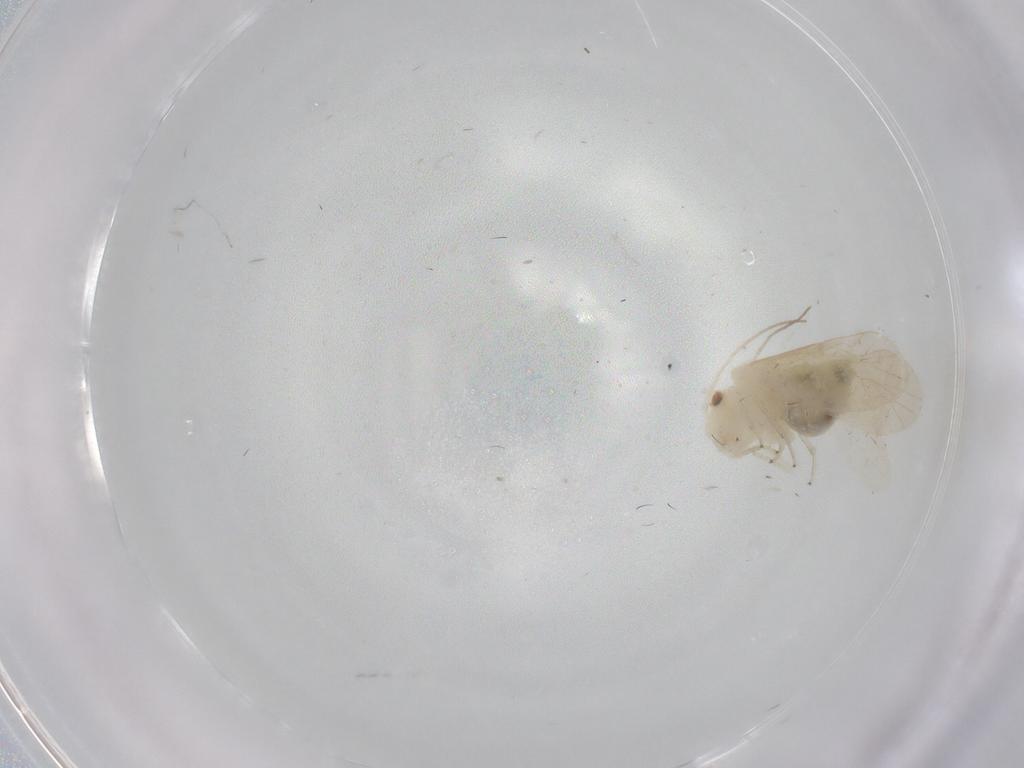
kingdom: Animalia
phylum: Arthropoda
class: Insecta
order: Psocodea
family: Caeciliusidae
